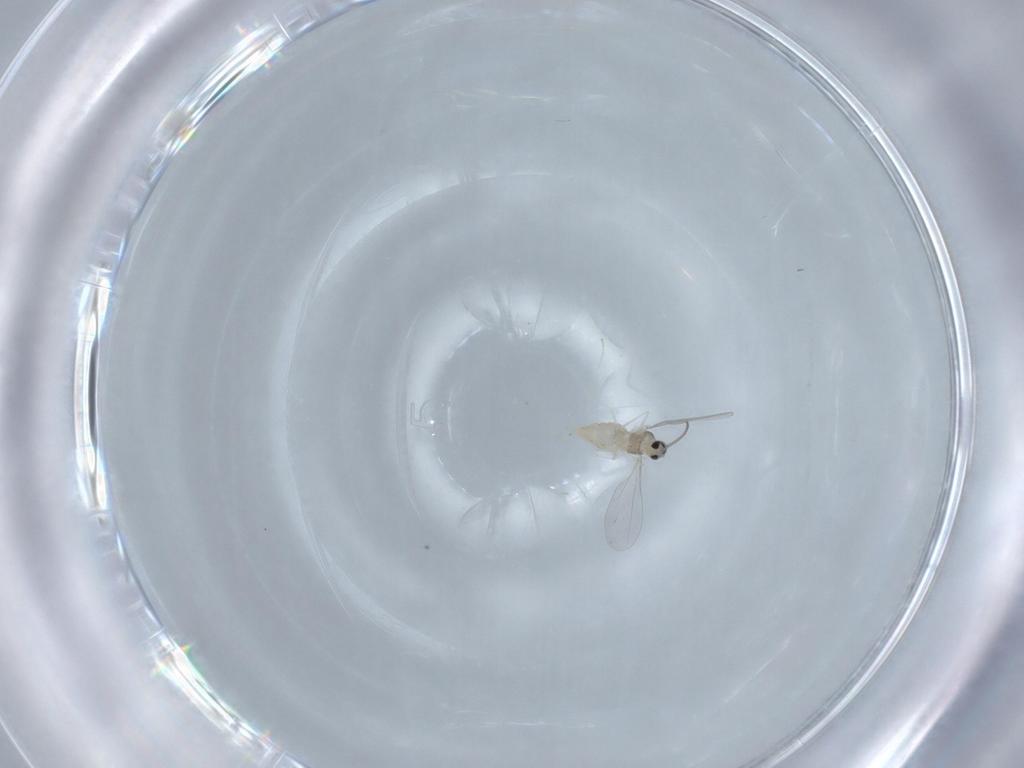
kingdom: Animalia
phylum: Arthropoda
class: Insecta
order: Diptera
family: Cecidomyiidae
